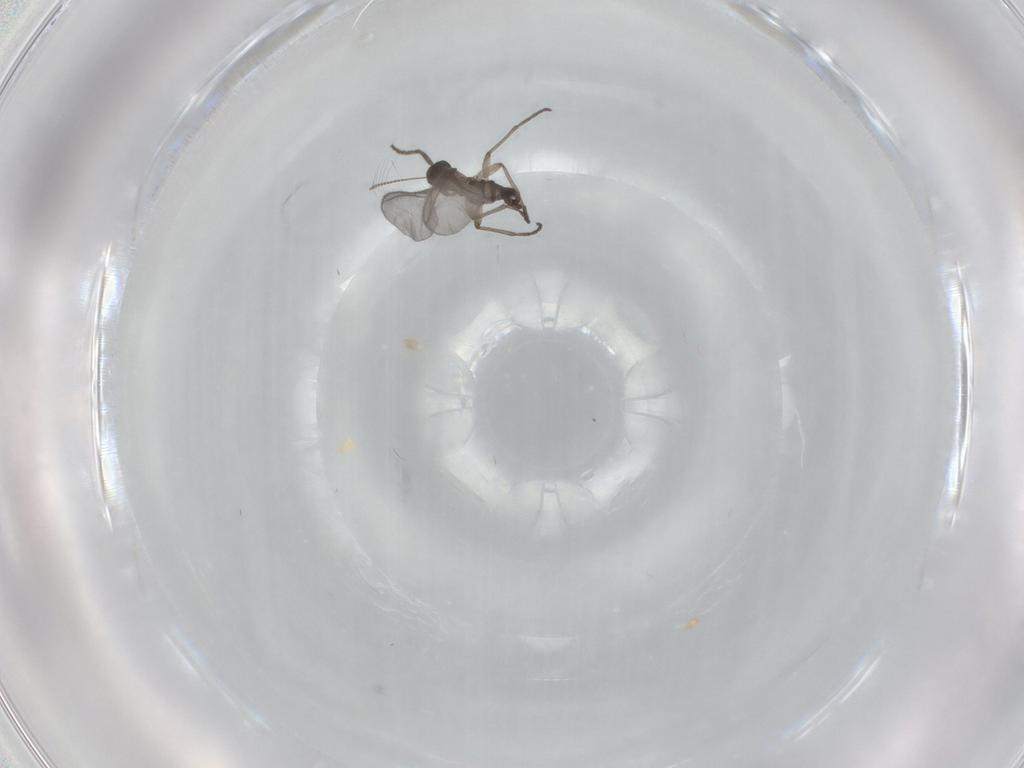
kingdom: Animalia
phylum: Arthropoda
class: Insecta
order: Diptera
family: Sciaridae
